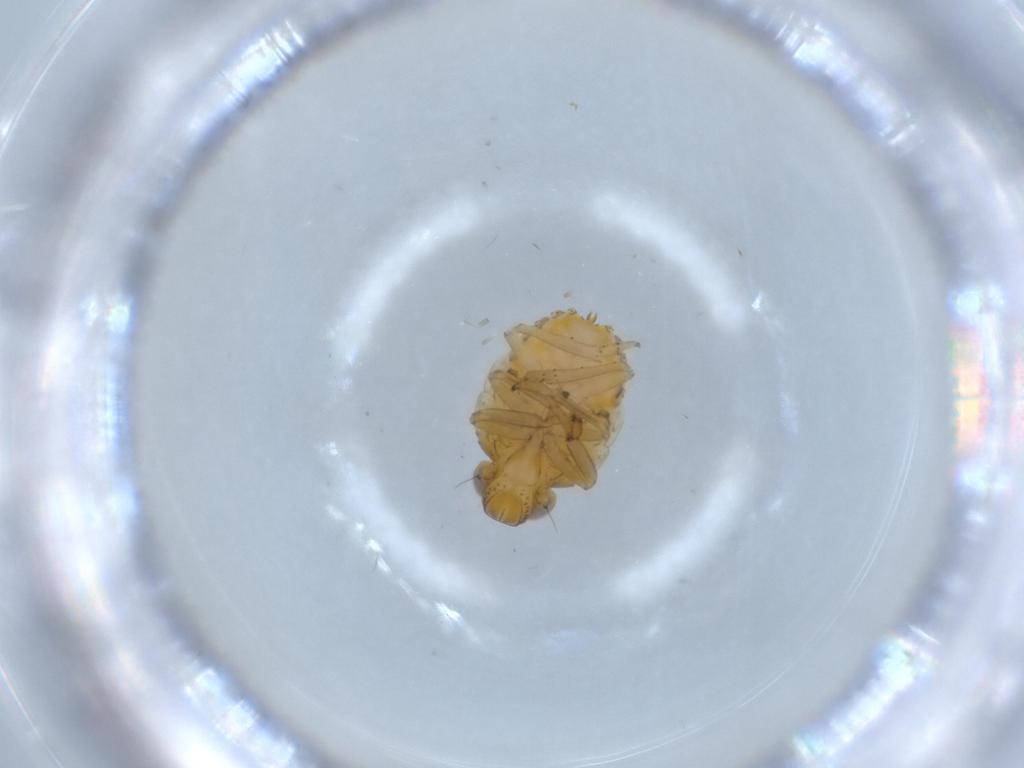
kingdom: Animalia
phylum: Arthropoda
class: Insecta
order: Hemiptera
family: Issidae
